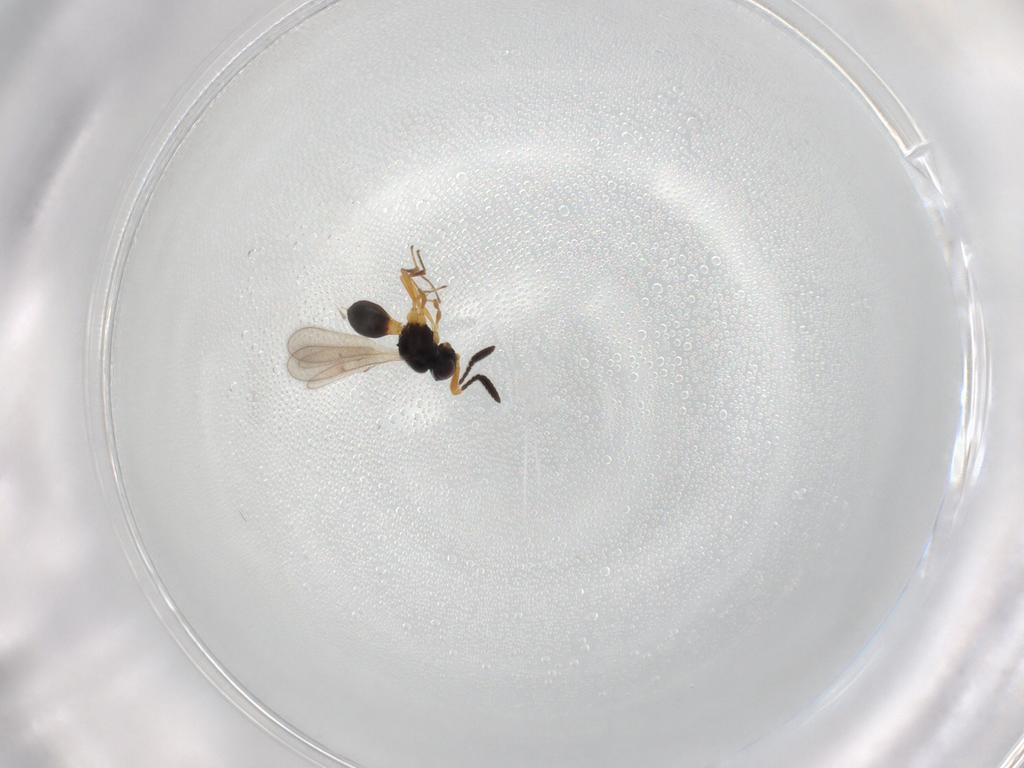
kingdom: Animalia
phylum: Arthropoda
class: Insecta
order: Hymenoptera
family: Scelionidae
